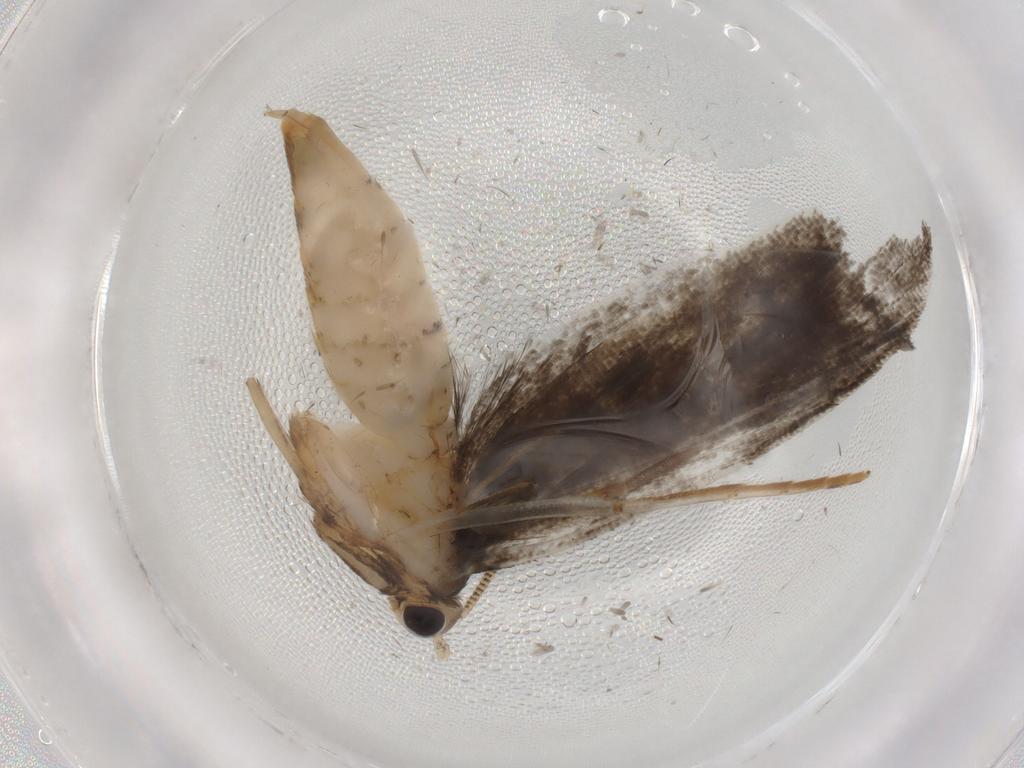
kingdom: Animalia
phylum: Arthropoda
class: Insecta
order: Lepidoptera
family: Tineidae
